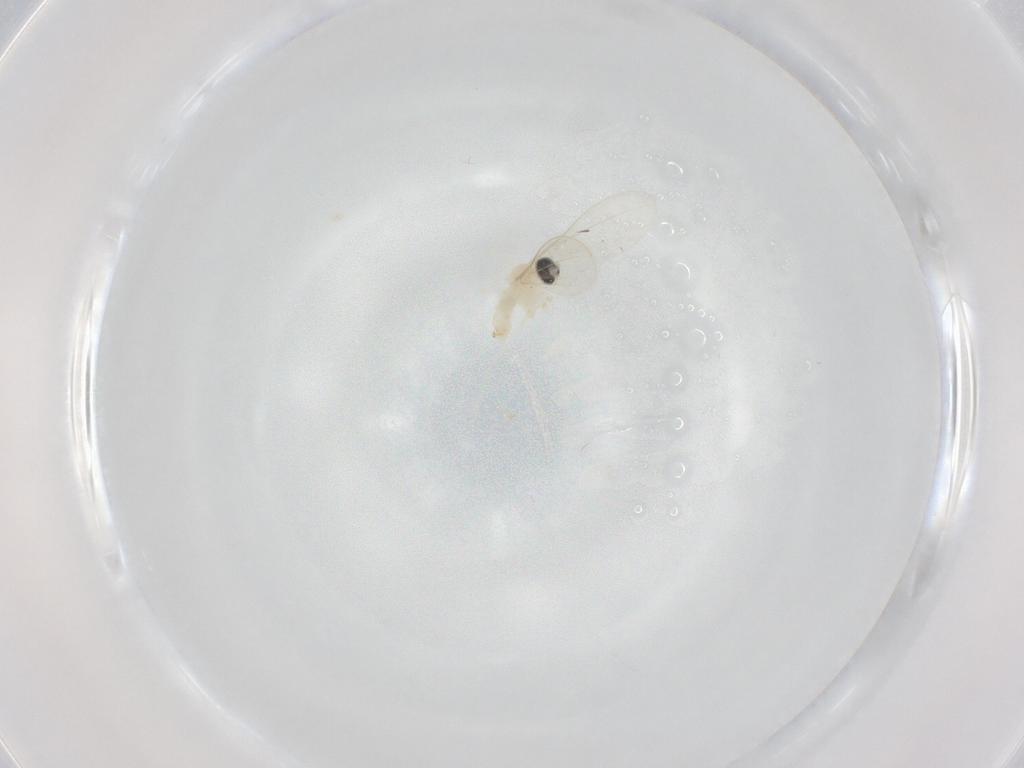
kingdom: Animalia
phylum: Arthropoda
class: Insecta
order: Diptera
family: Cecidomyiidae
